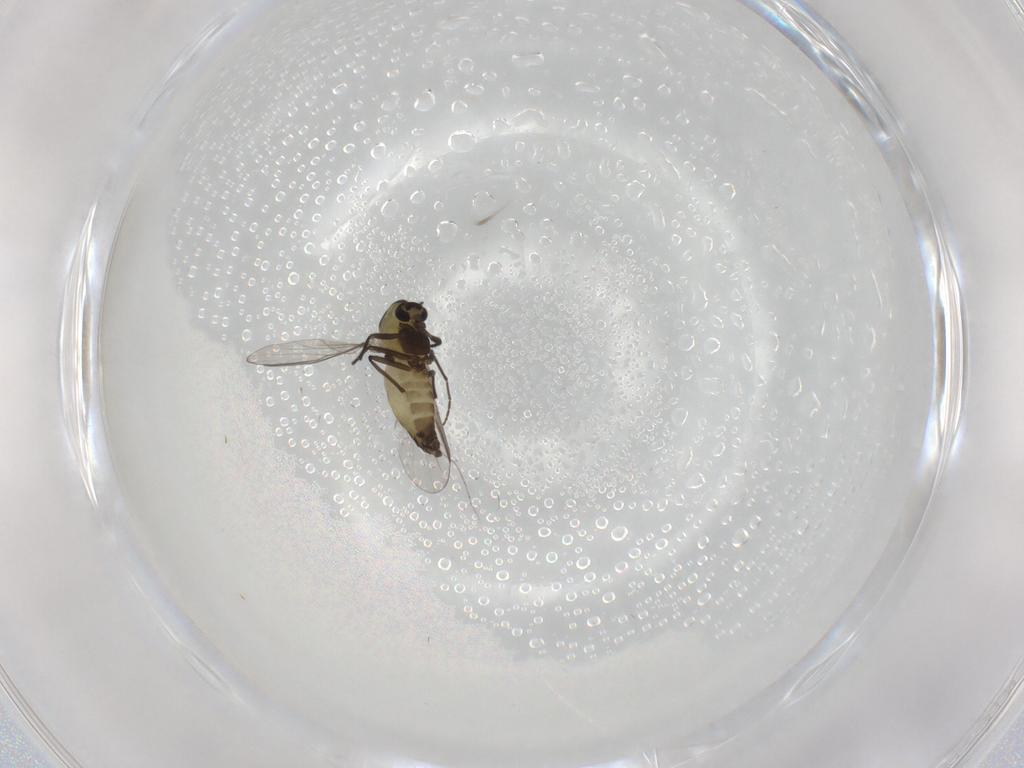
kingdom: Animalia
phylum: Arthropoda
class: Insecta
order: Diptera
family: Chironomidae
